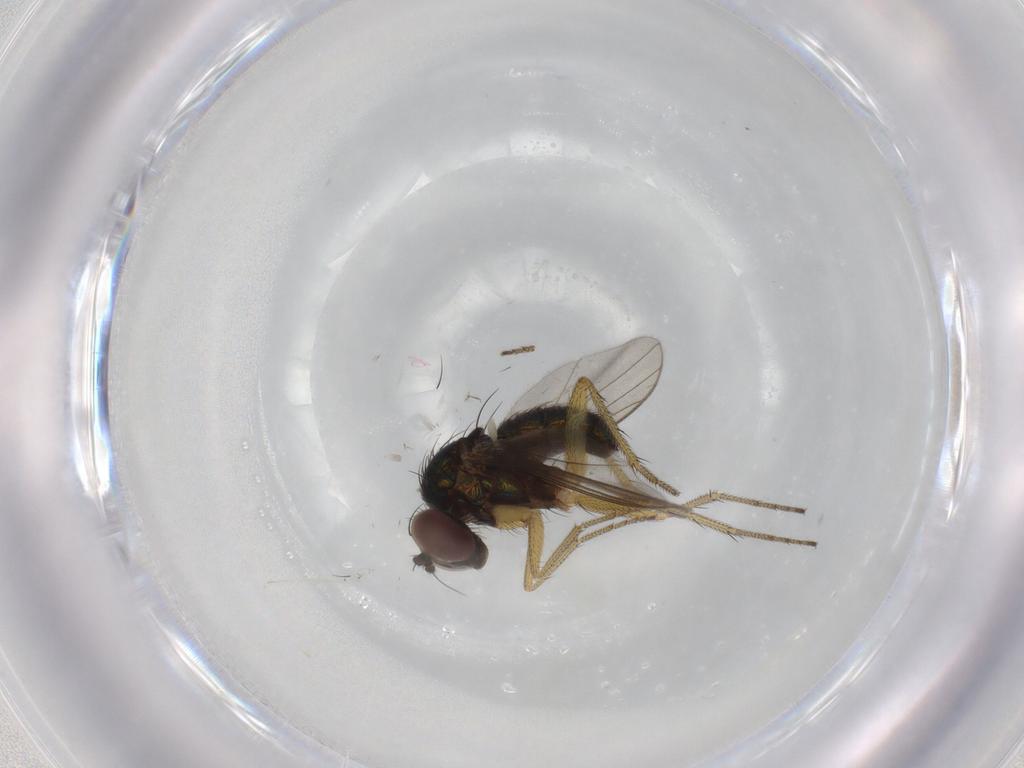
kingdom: Animalia
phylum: Arthropoda
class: Insecta
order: Diptera
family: Dolichopodidae
